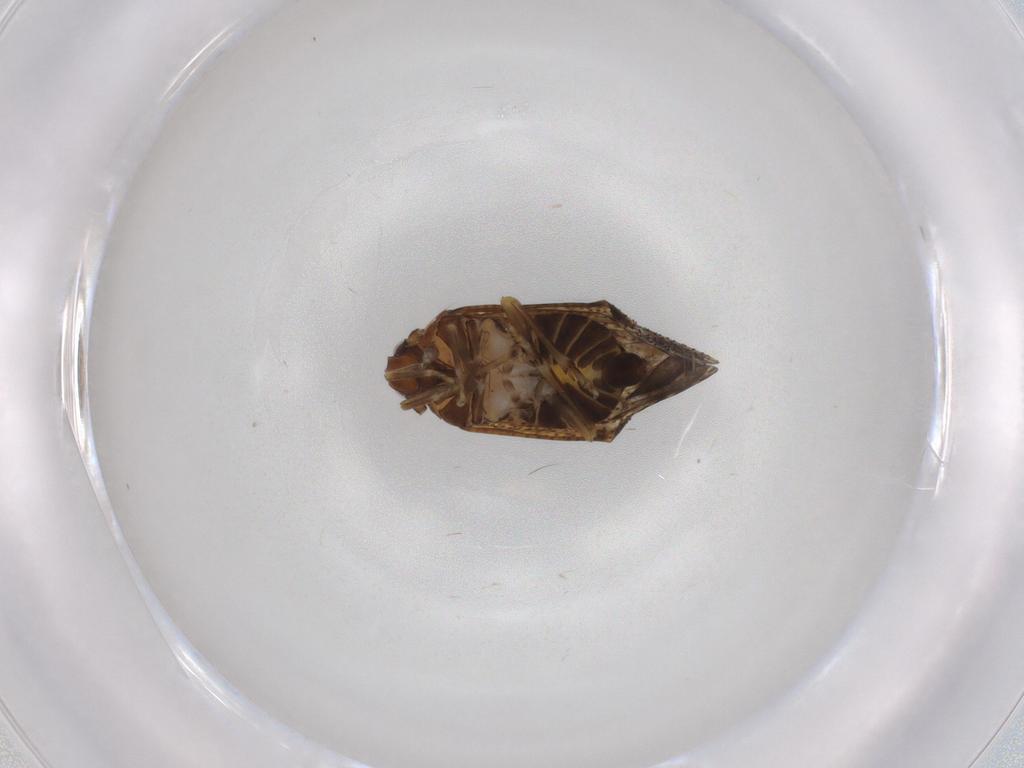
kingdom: Animalia
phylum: Arthropoda
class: Insecta
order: Hemiptera
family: Delphacidae
